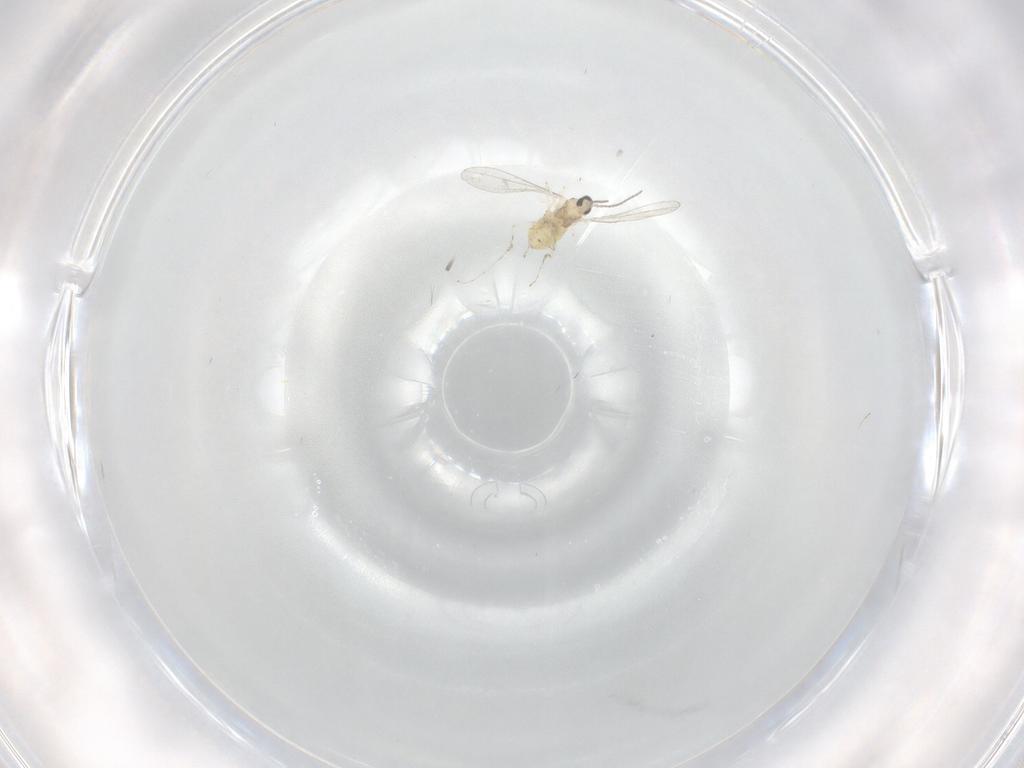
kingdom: Animalia
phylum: Arthropoda
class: Insecta
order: Diptera
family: Cecidomyiidae
